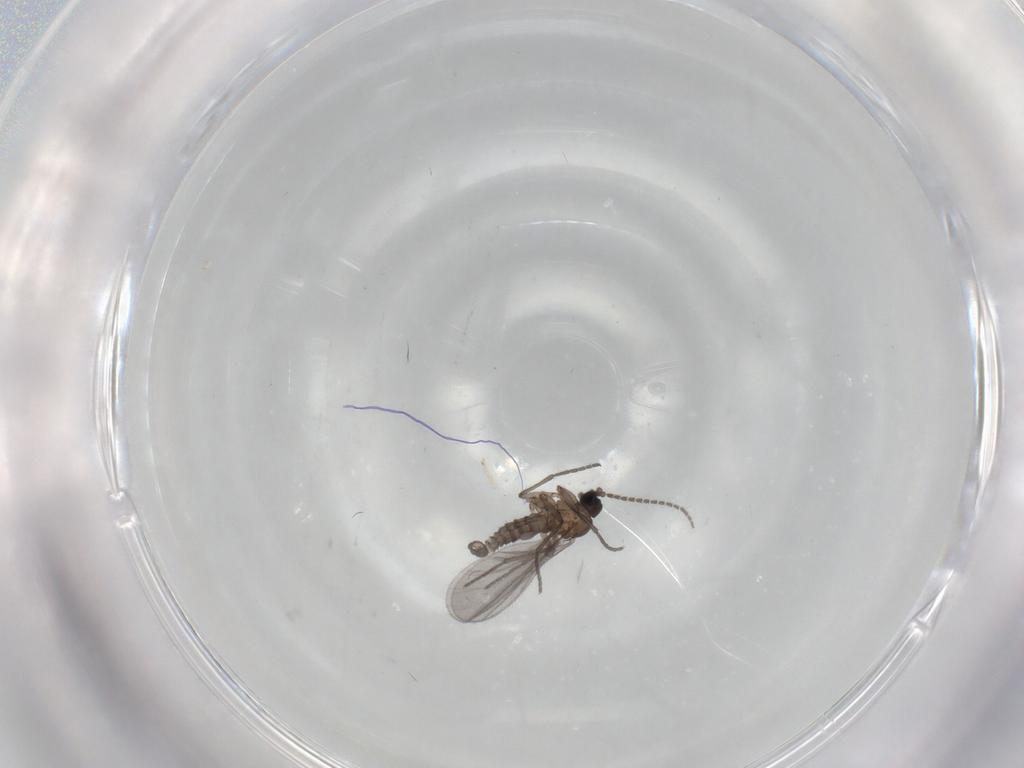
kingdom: Animalia
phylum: Arthropoda
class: Insecta
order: Diptera
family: Sciaridae
